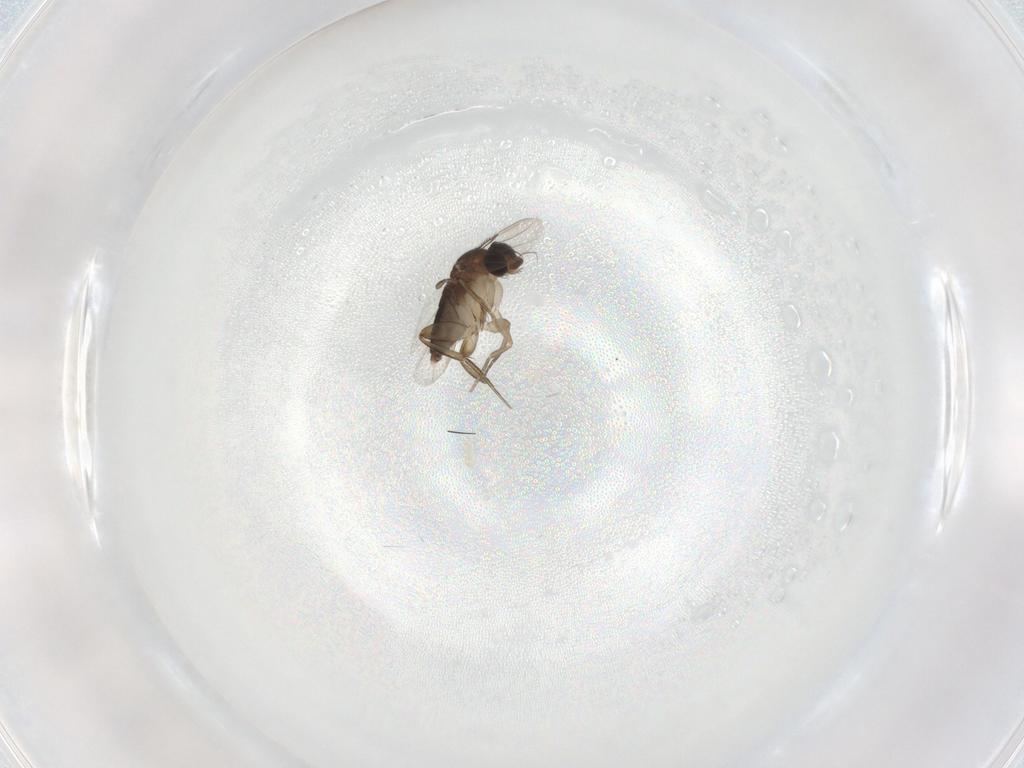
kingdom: Animalia
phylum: Arthropoda
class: Insecta
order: Diptera
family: Phoridae
